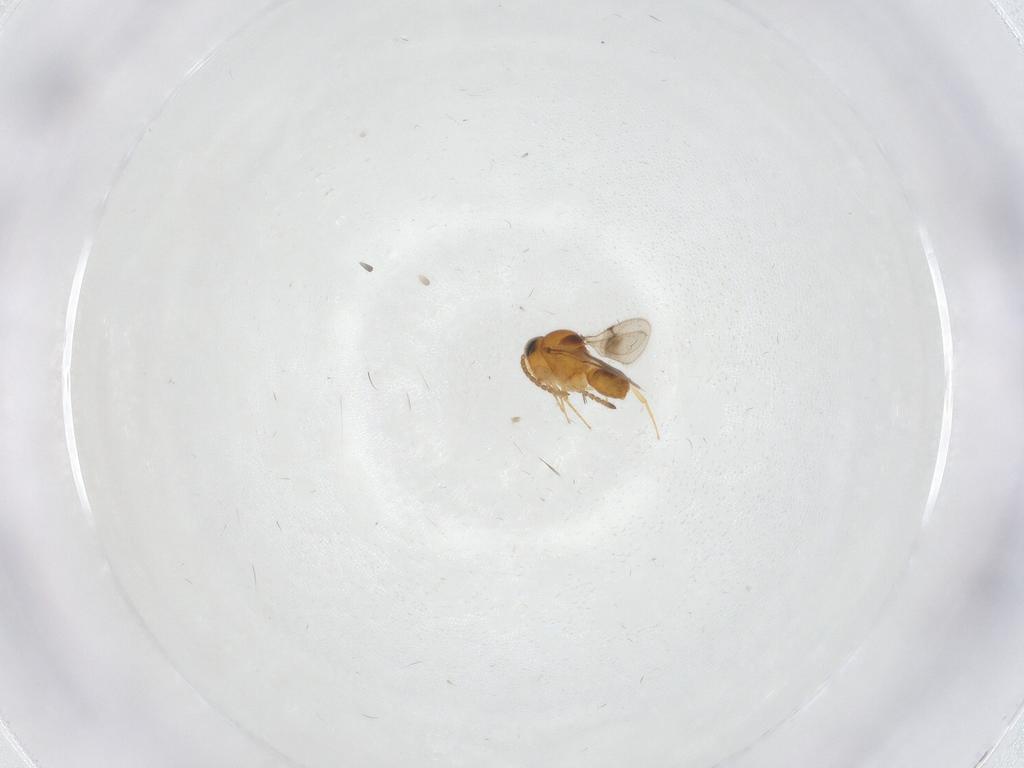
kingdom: Animalia
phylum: Arthropoda
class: Insecta
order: Hymenoptera
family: Scelionidae
